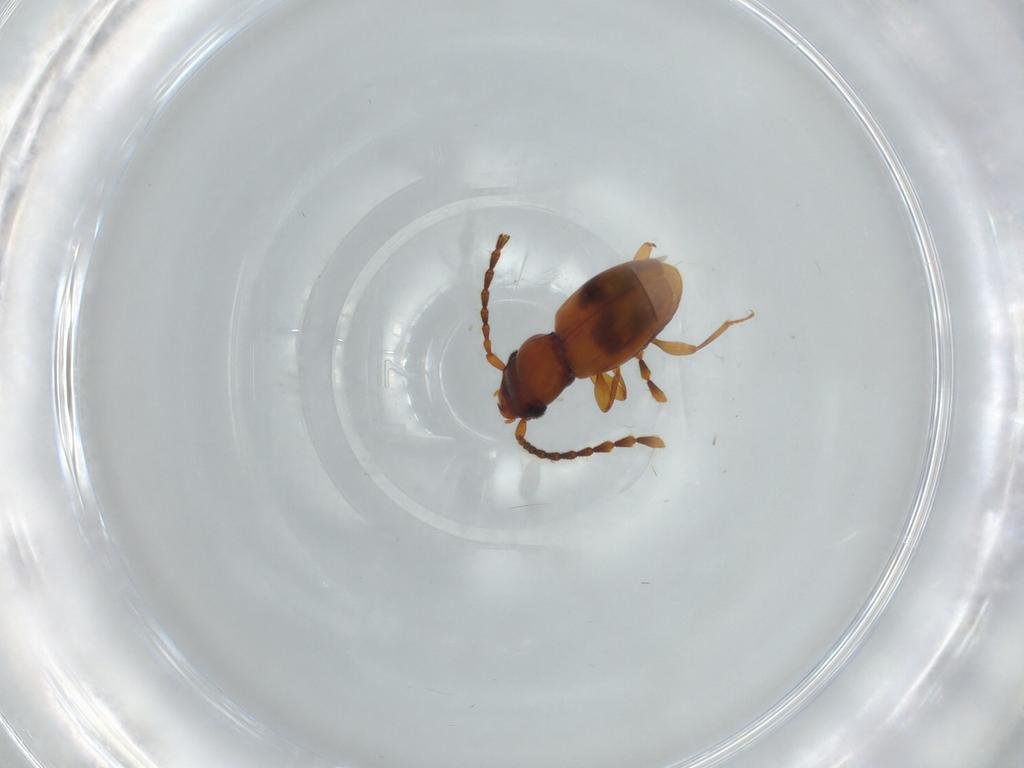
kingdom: Animalia
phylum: Arthropoda
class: Insecta
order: Coleoptera
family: Laemophloeidae
